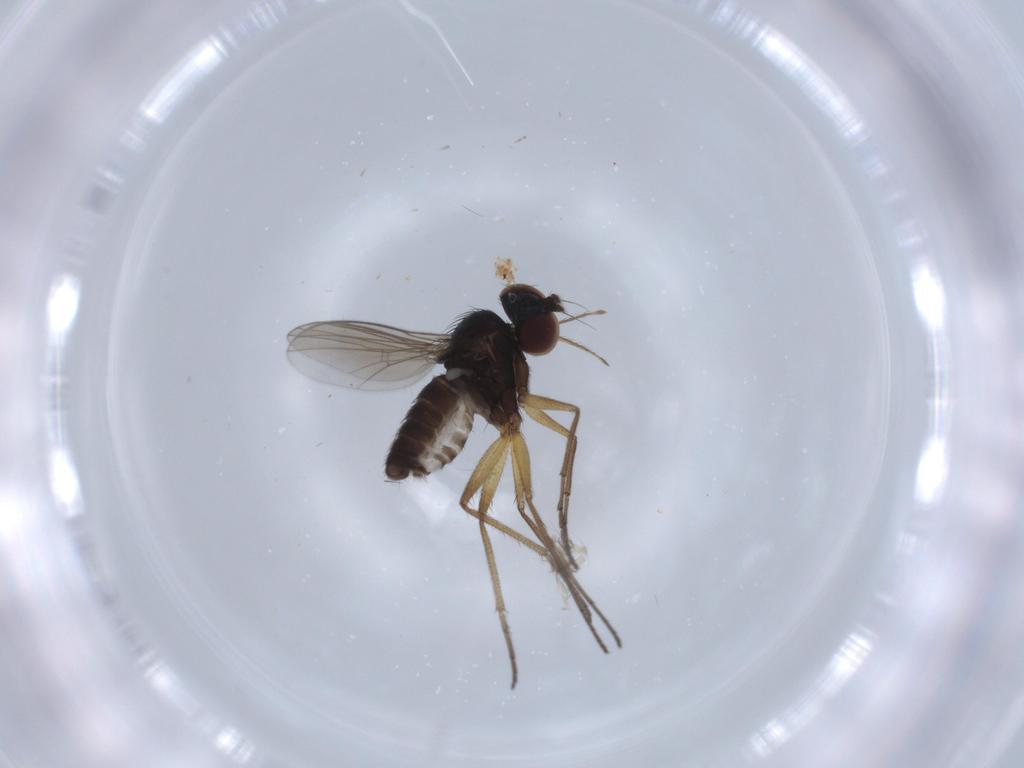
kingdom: Animalia
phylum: Arthropoda
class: Insecta
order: Diptera
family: Dolichopodidae
